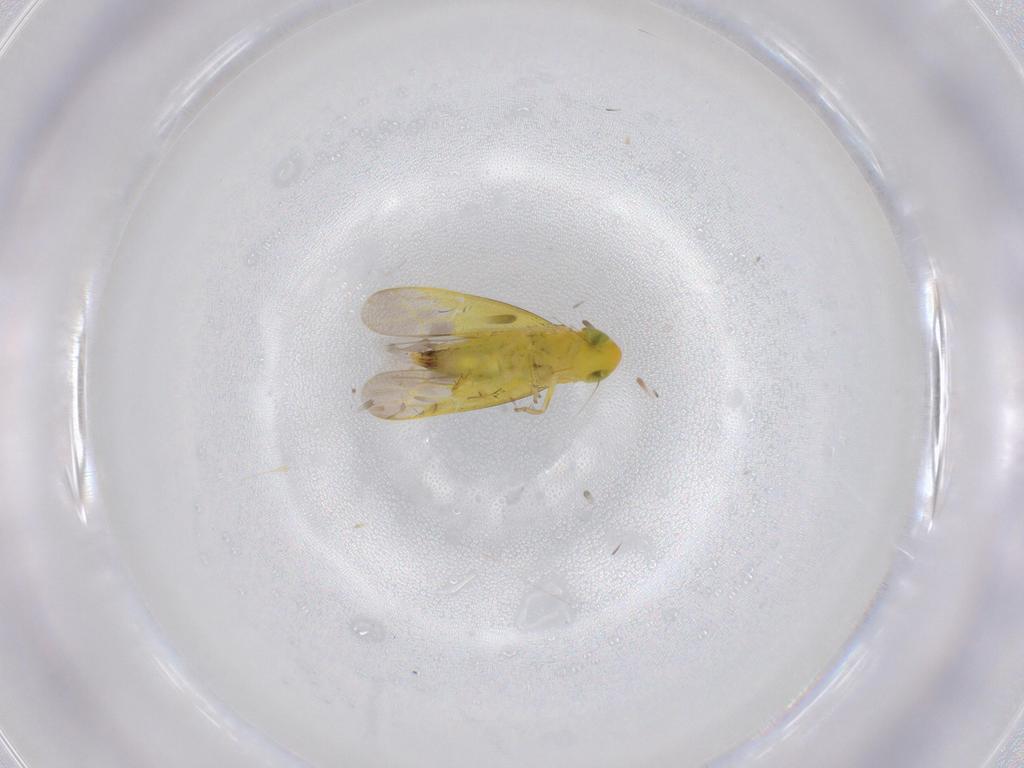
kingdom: Animalia
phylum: Arthropoda
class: Insecta
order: Hemiptera
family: Cicadellidae
